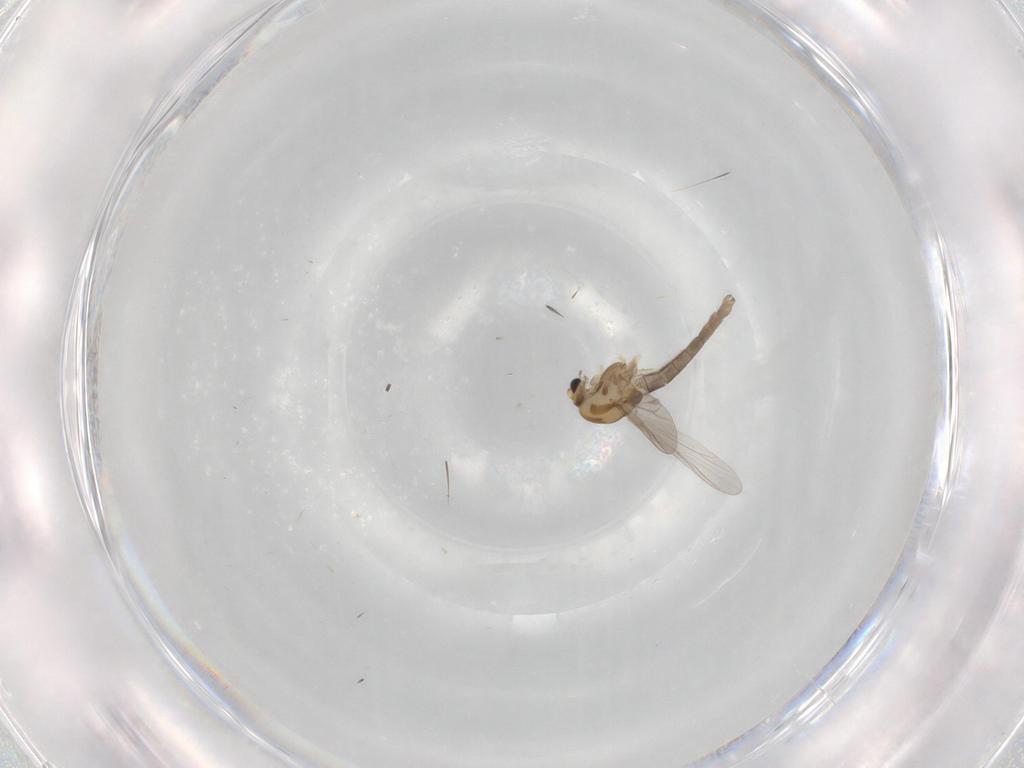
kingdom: Animalia
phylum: Arthropoda
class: Insecta
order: Diptera
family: Chironomidae
